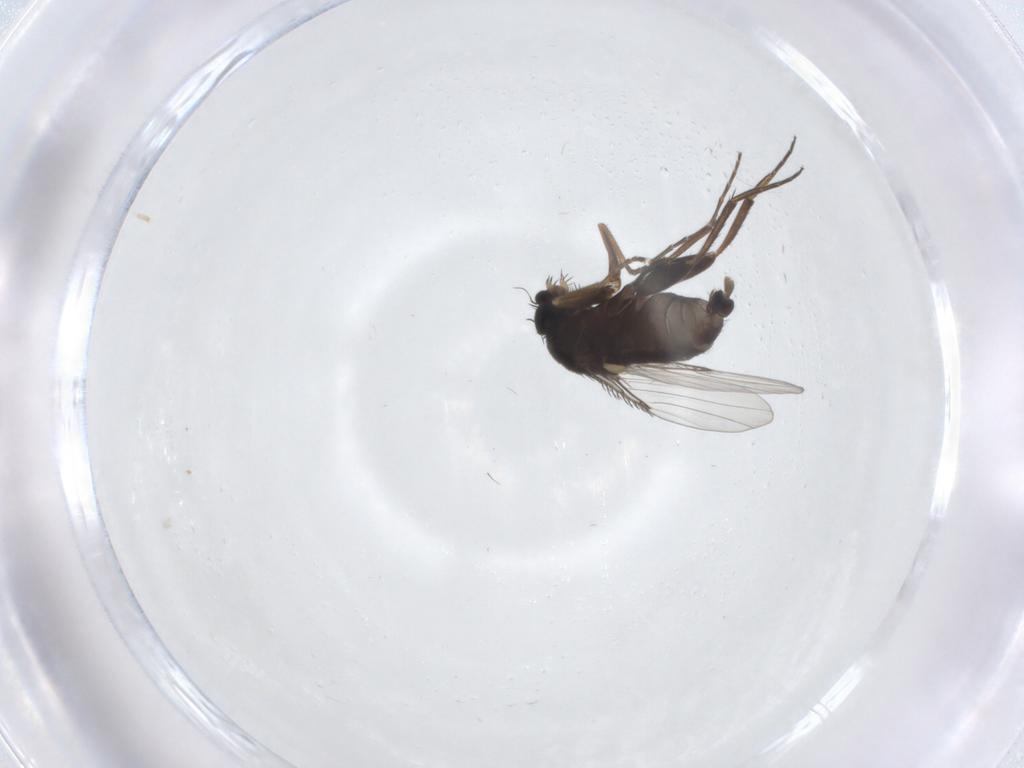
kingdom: Animalia
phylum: Arthropoda
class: Insecta
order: Diptera
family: Phoridae
